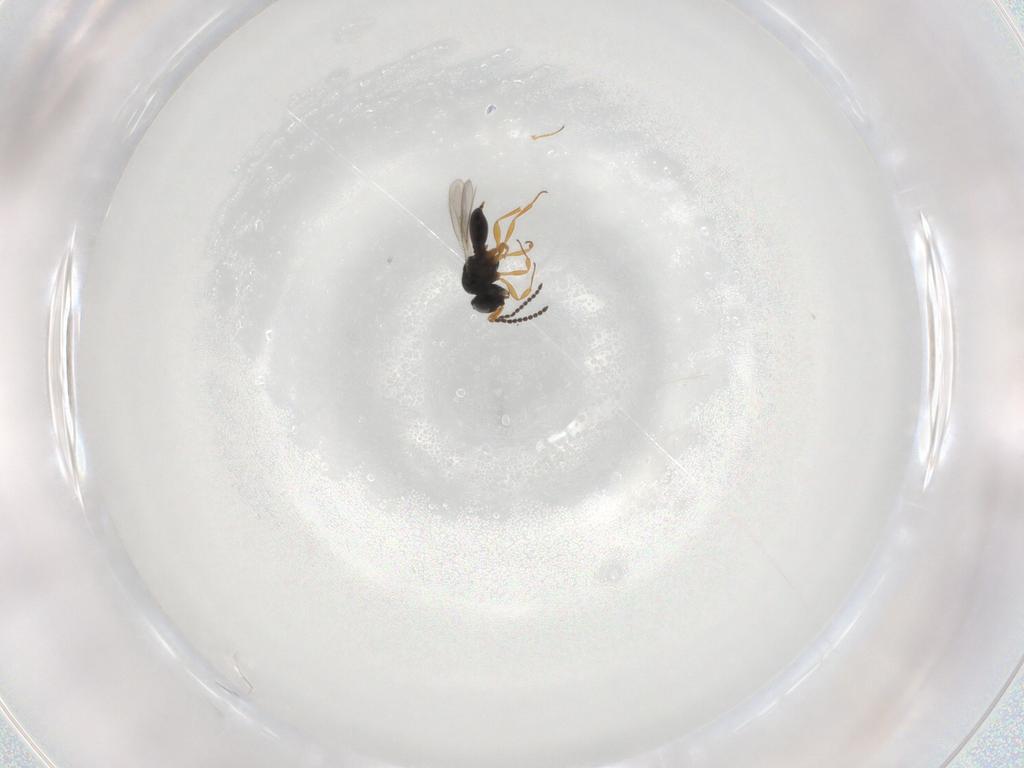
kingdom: Animalia
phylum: Arthropoda
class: Insecta
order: Hymenoptera
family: Scelionidae
